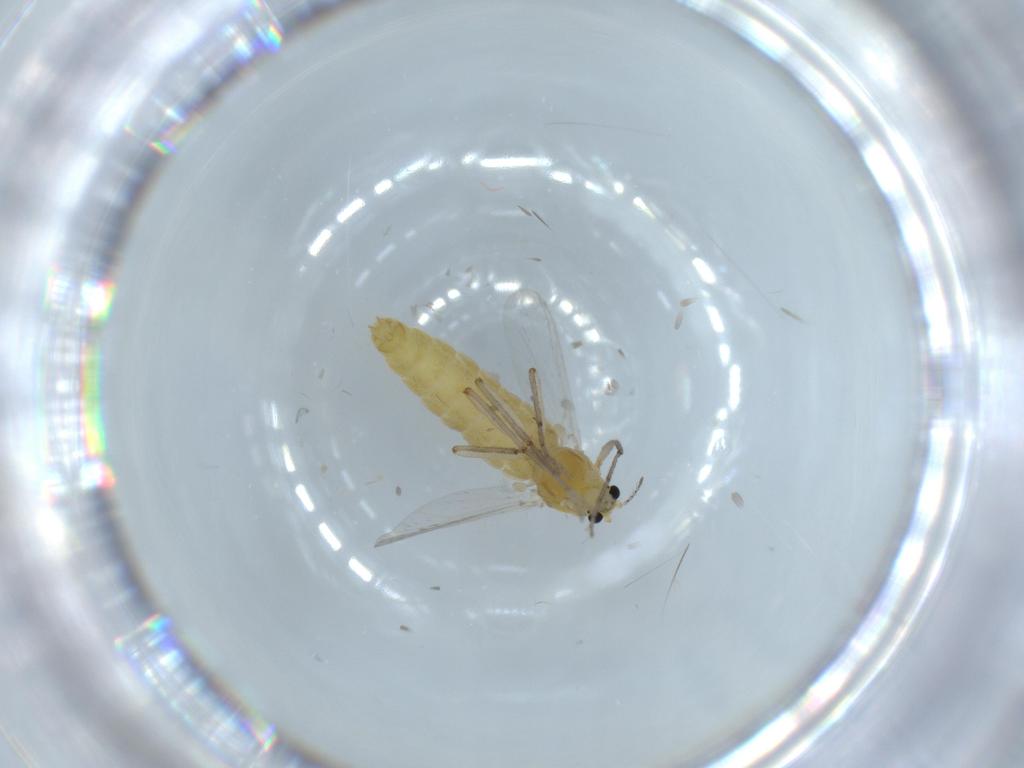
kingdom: Animalia
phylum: Arthropoda
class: Insecta
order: Diptera
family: Chironomidae
